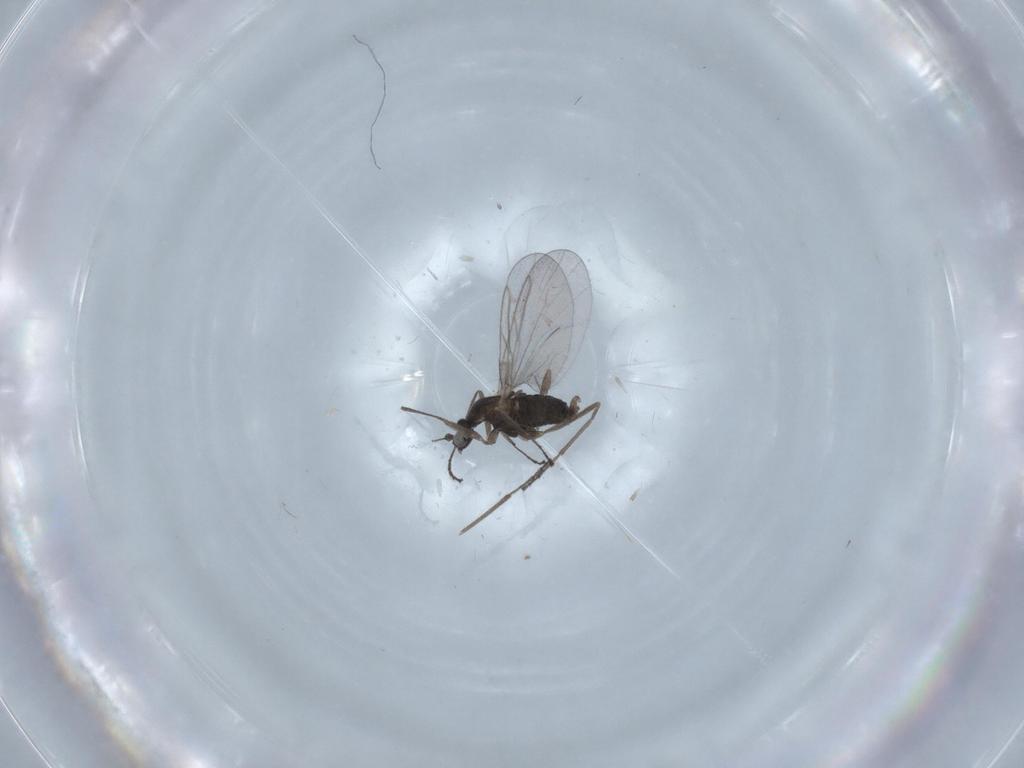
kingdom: Animalia
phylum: Arthropoda
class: Insecta
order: Diptera
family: Cecidomyiidae
